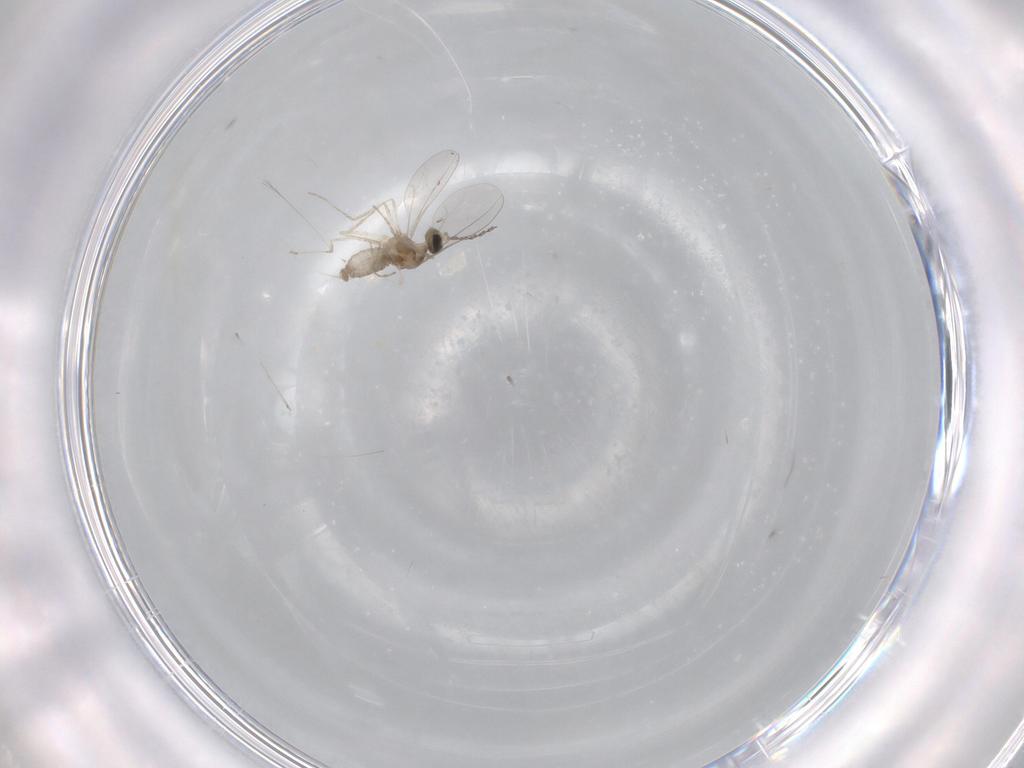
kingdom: Animalia
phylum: Arthropoda
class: Insecta
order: Diptera
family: Cecidomyiidae
